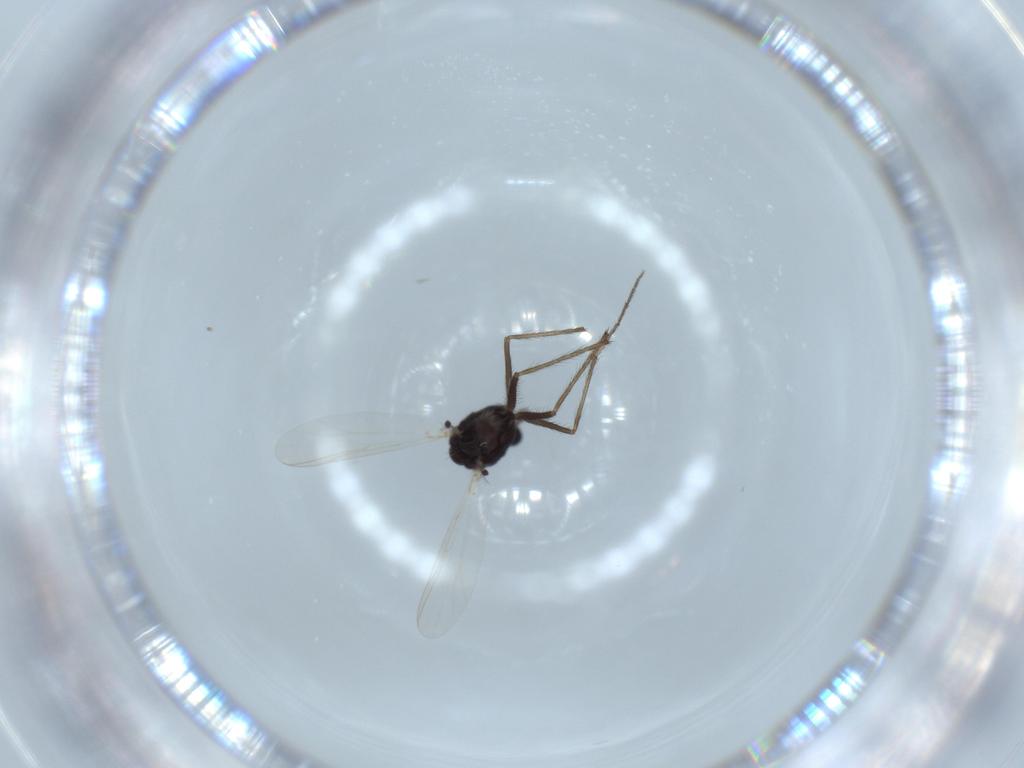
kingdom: Animalia
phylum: Arthropoda
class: Insecta
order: Diptera
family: Chironomidae
